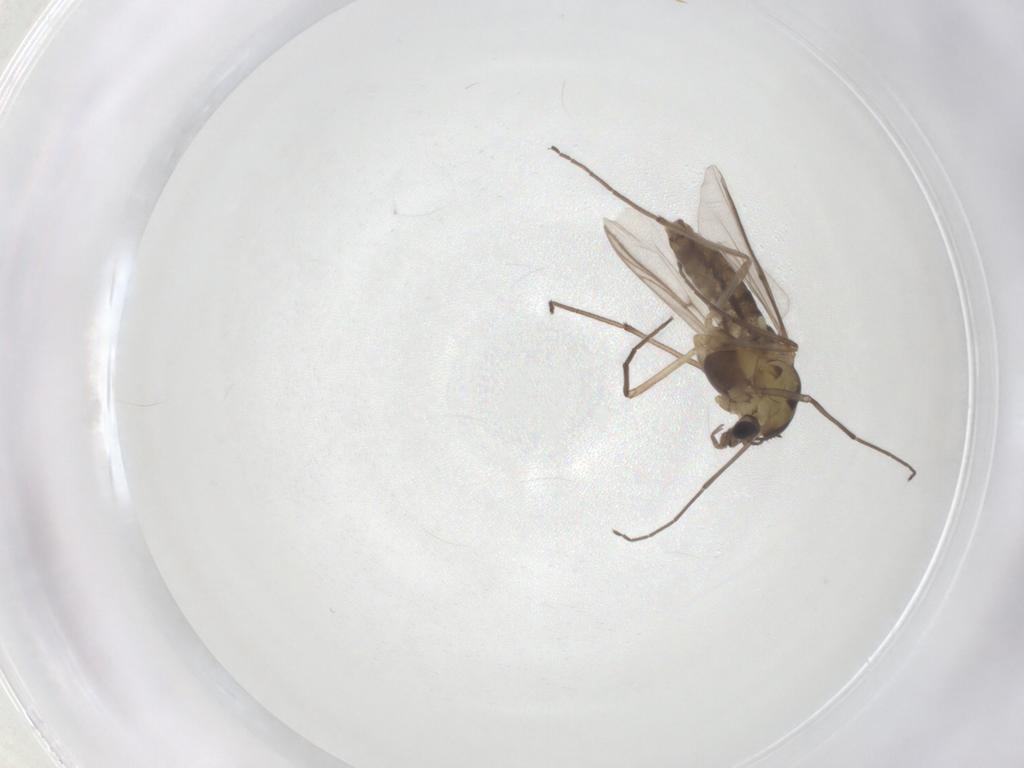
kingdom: Animalia
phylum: Arthropoda
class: Insecta
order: Diptera
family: Chironomidae
